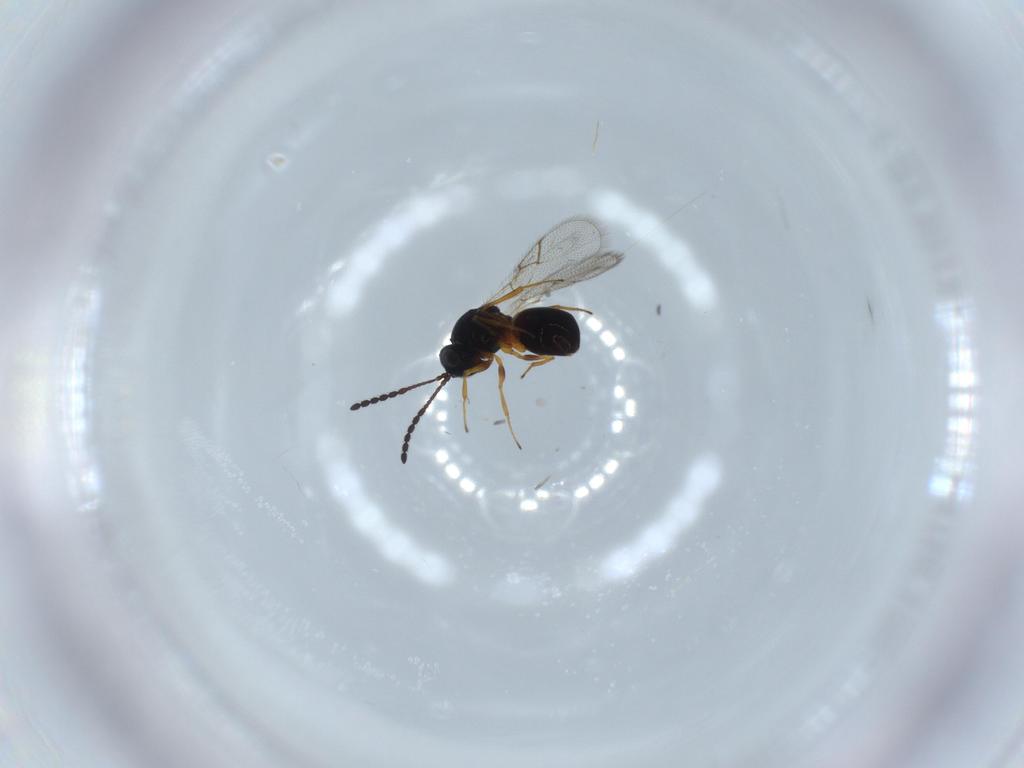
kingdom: Animalia
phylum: Arthropoda
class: Insecta
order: Hymenoptera
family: Figitidae
